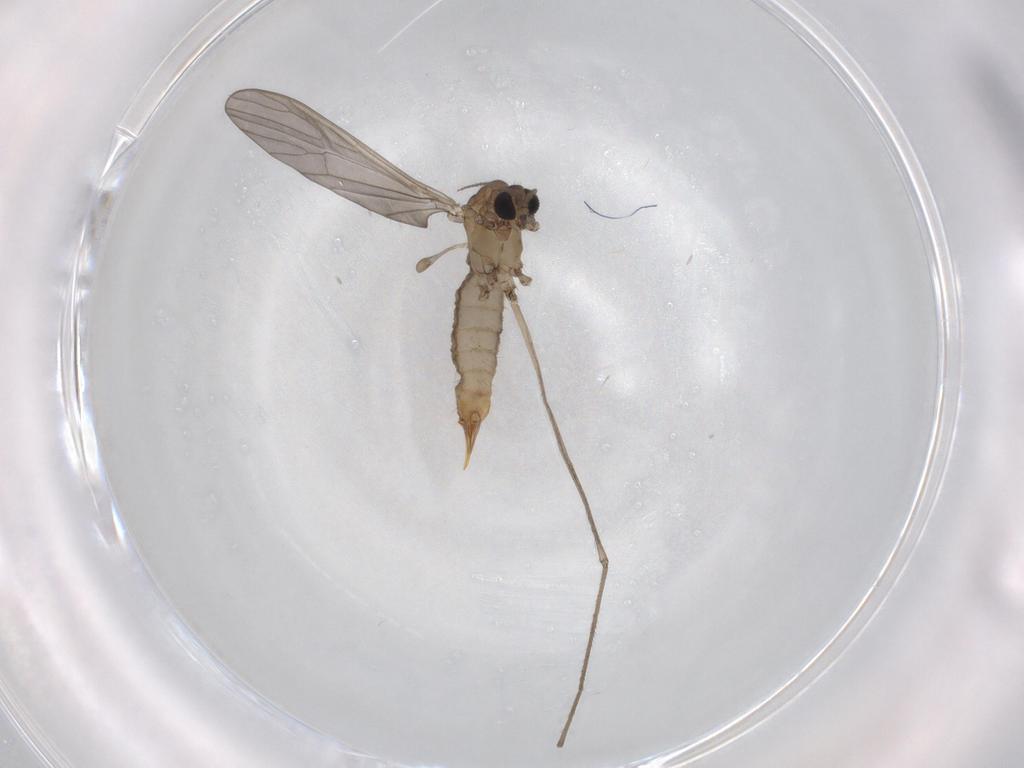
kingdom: Animalia
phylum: Arthropoda
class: Insecta
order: Diptera
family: Limoniidae
